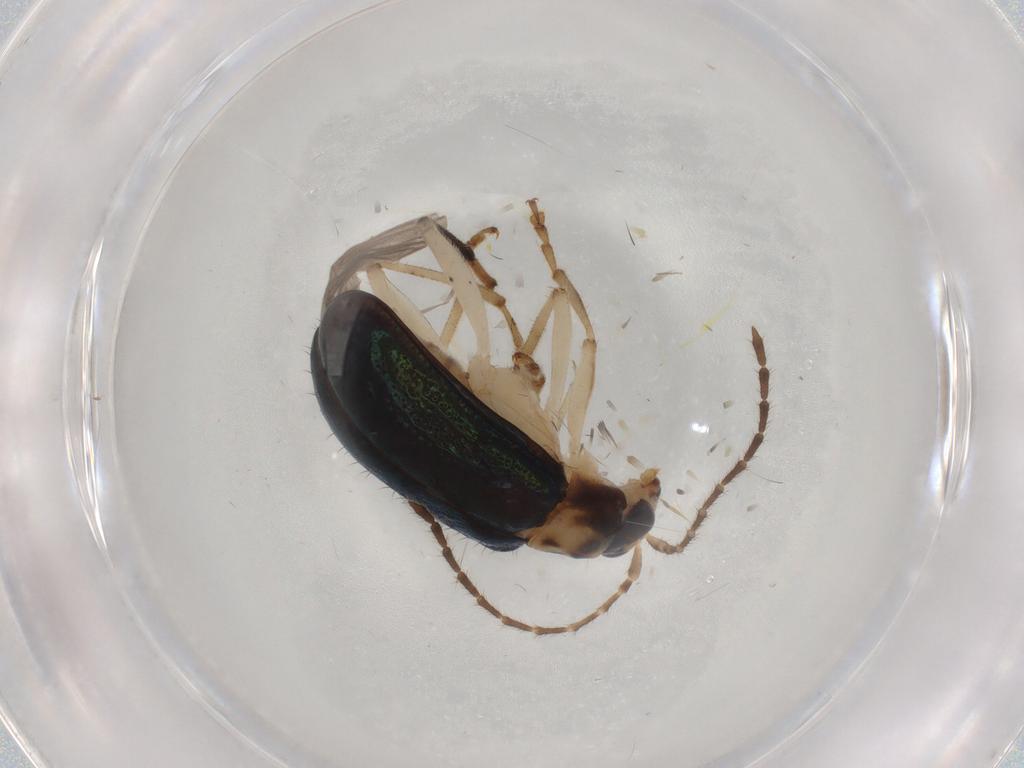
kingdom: Animalia
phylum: Arthropoda
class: Insecta
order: Coleoptera
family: Chrysomelidae
